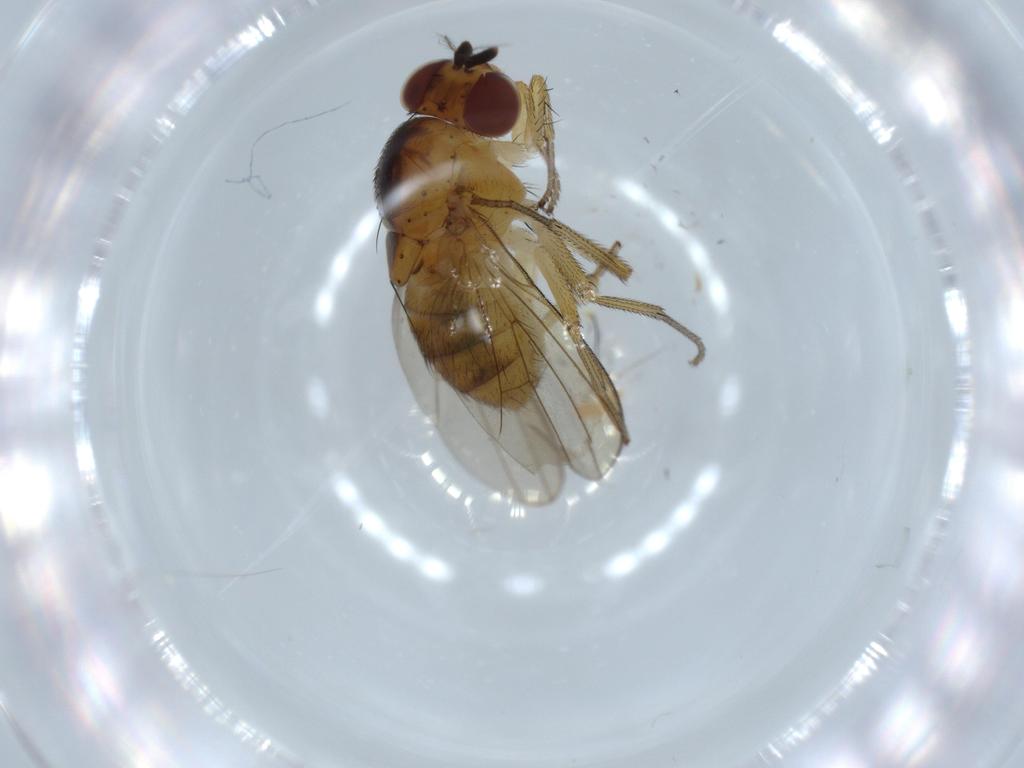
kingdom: Animalia
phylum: Arthropoda
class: Insecta
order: Diptera
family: Lauxaniidae
